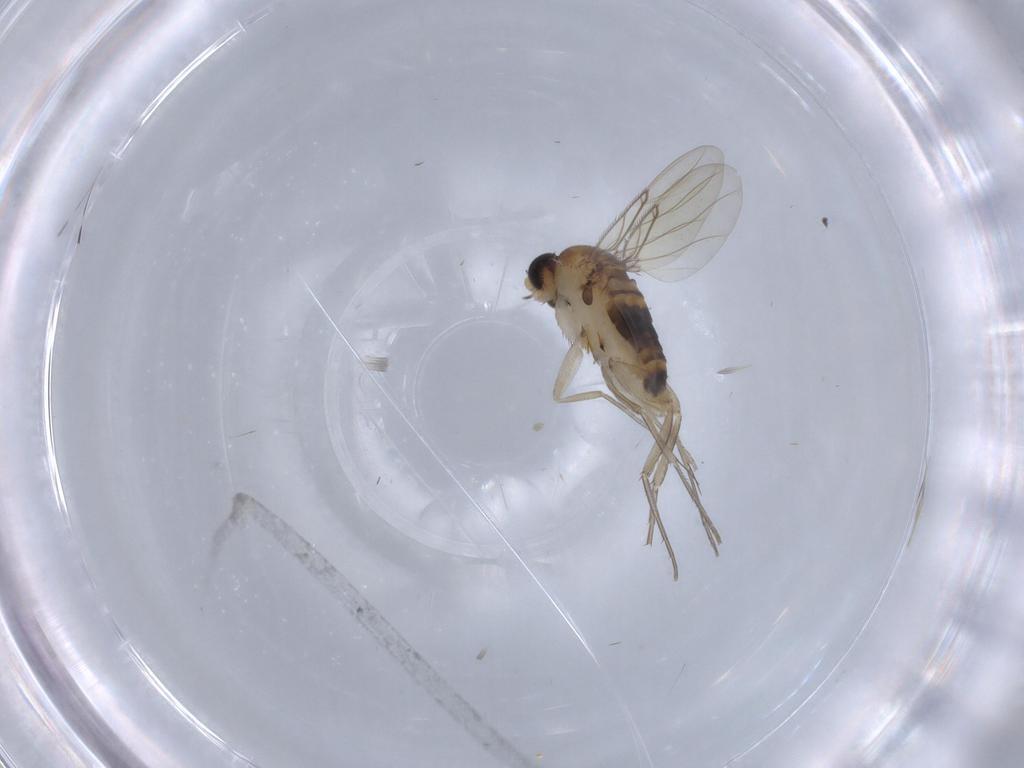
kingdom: Animalia
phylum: Arthropoda
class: Insecta
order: Diptera
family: Phoridae
